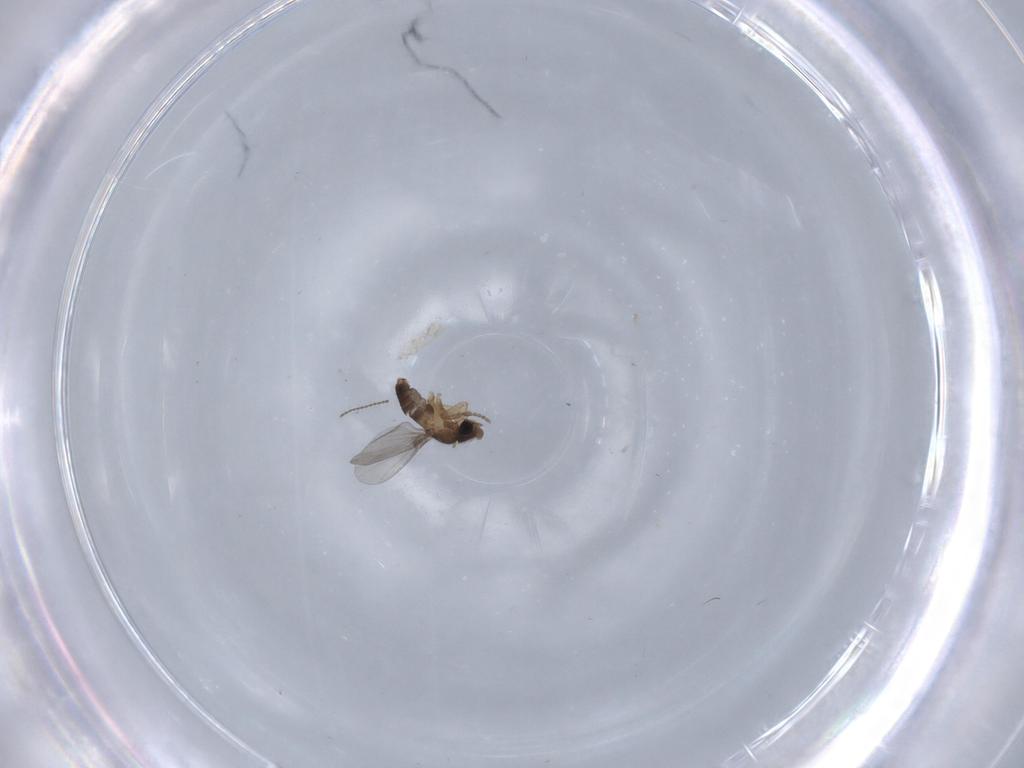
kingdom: Animalia
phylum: Arthropoda
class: Insecta
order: Diptera
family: Phoridae
